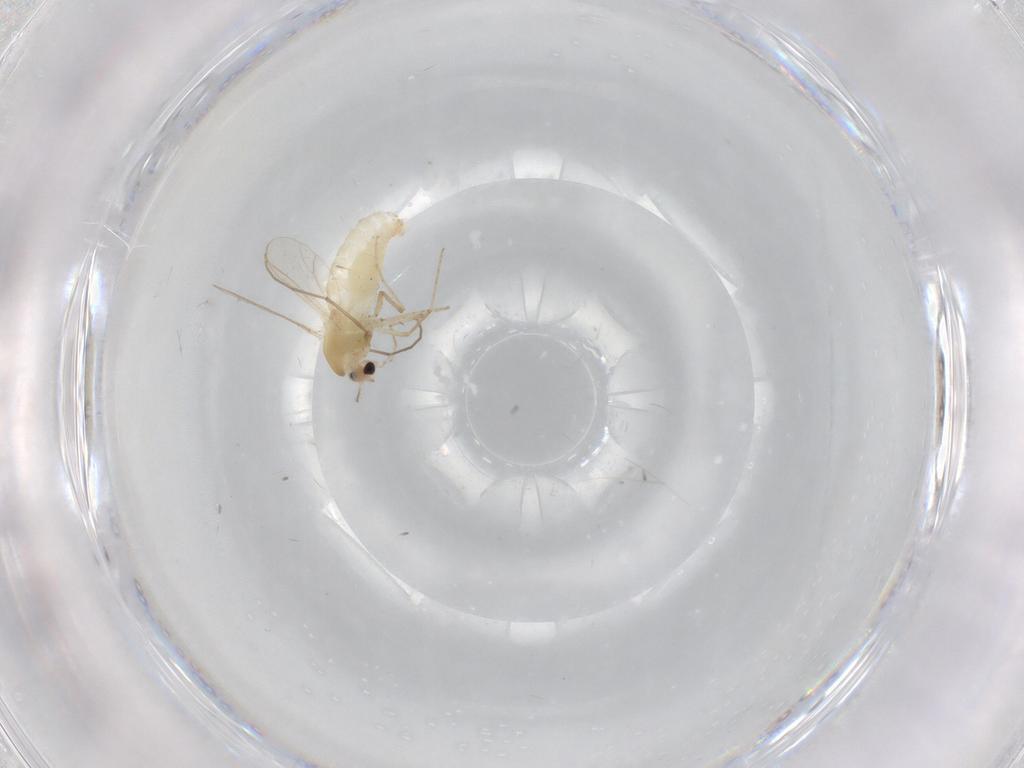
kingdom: Animalia
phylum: Arthropoda
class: Insecta
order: Diptera
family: Chironomidae
